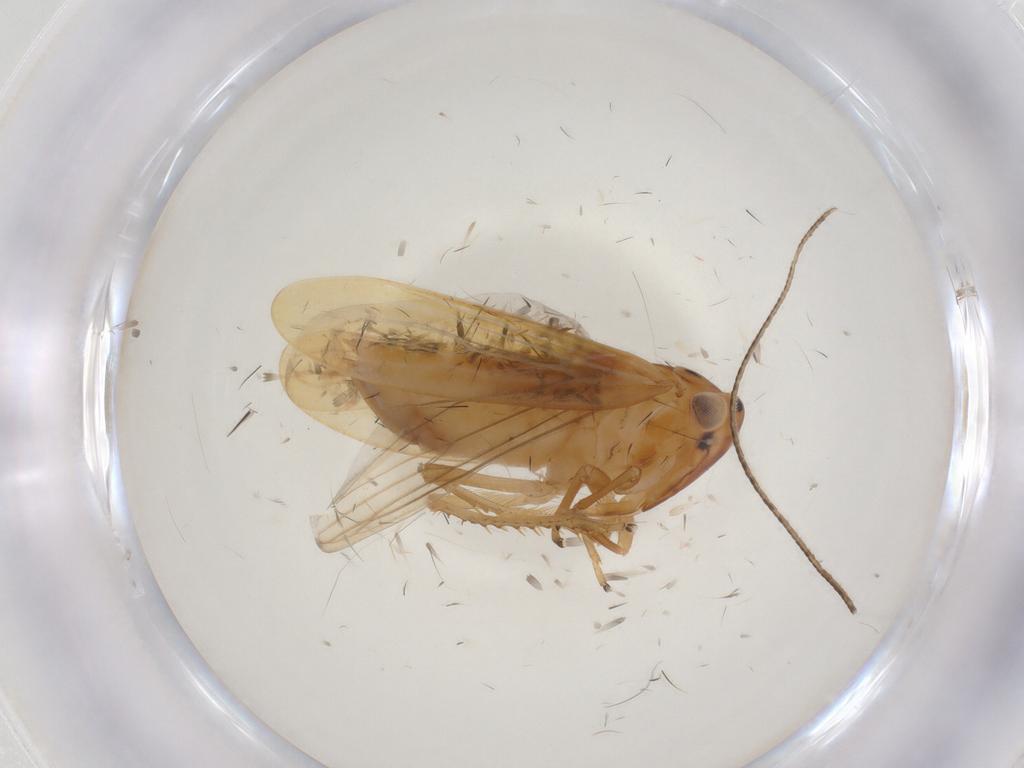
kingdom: Animalia
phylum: Arthropoda
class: Insecta
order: Hemiptera
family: Cicadellidae
